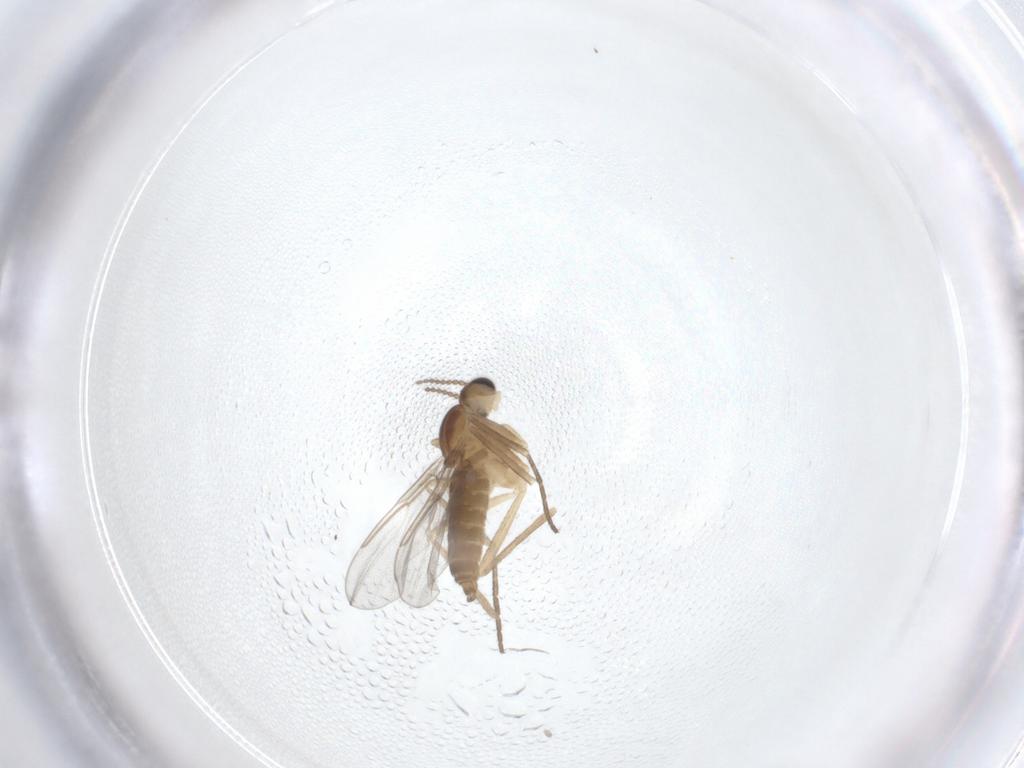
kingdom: Animalia
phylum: Arthropoda
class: Insecta
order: Diptera
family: Cecidomyiidae
